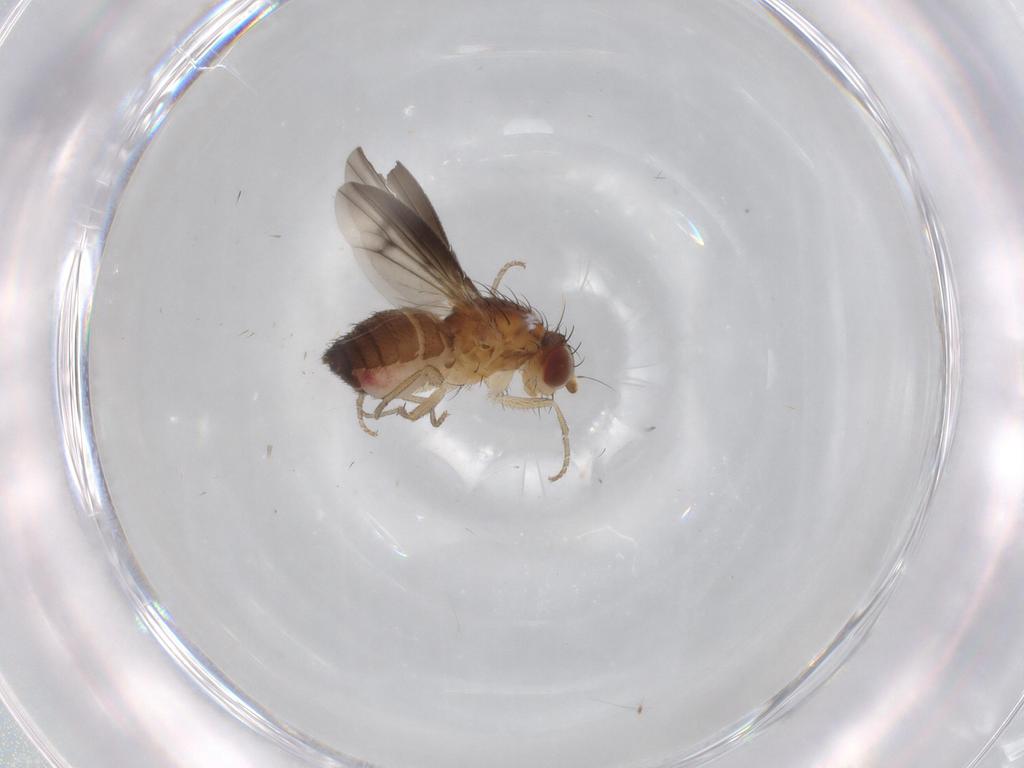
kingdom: Animalia
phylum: Arthropoda
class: Insecta
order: Diptera
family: Heleomyzidae
